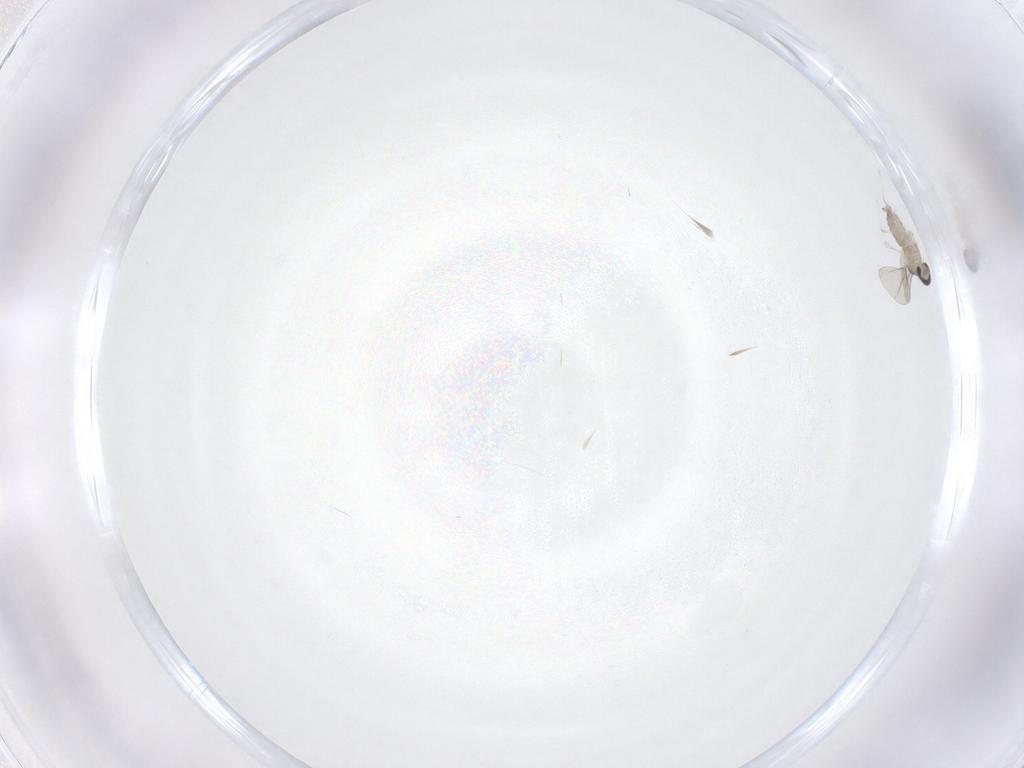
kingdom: Animalia
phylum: Arthropoda
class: Insecta
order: Diptera
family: Cecidomyiidae
